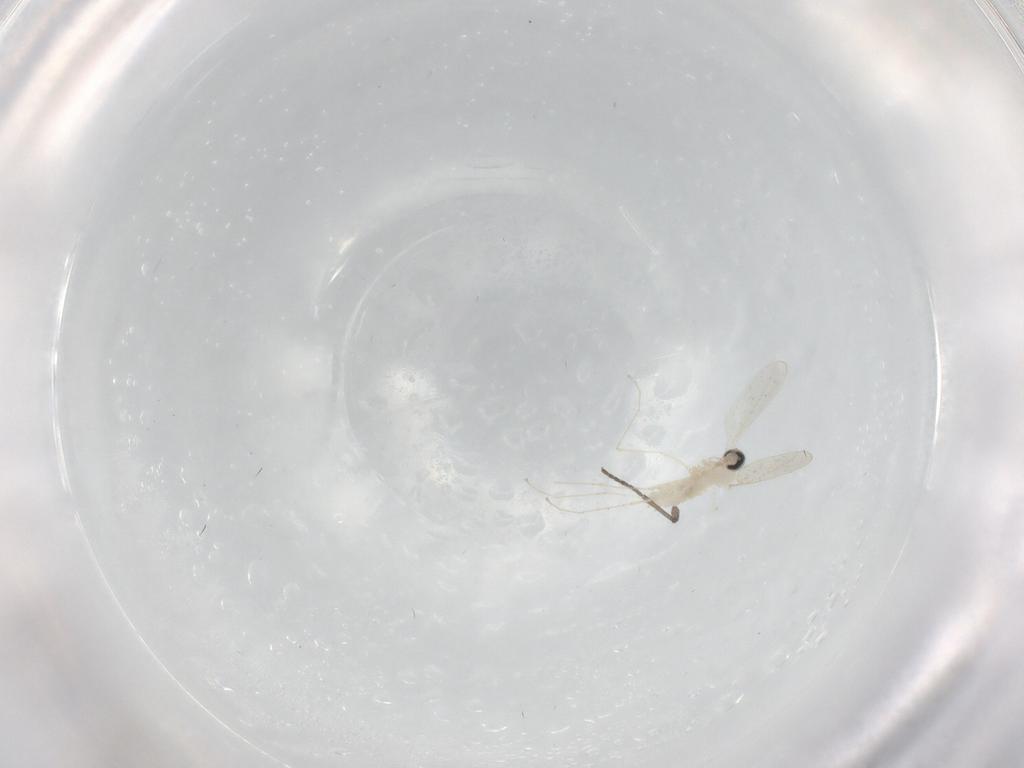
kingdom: Animalia
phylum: Arthropoda
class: Insecta
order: Diptera
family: Cecidomyiidae
